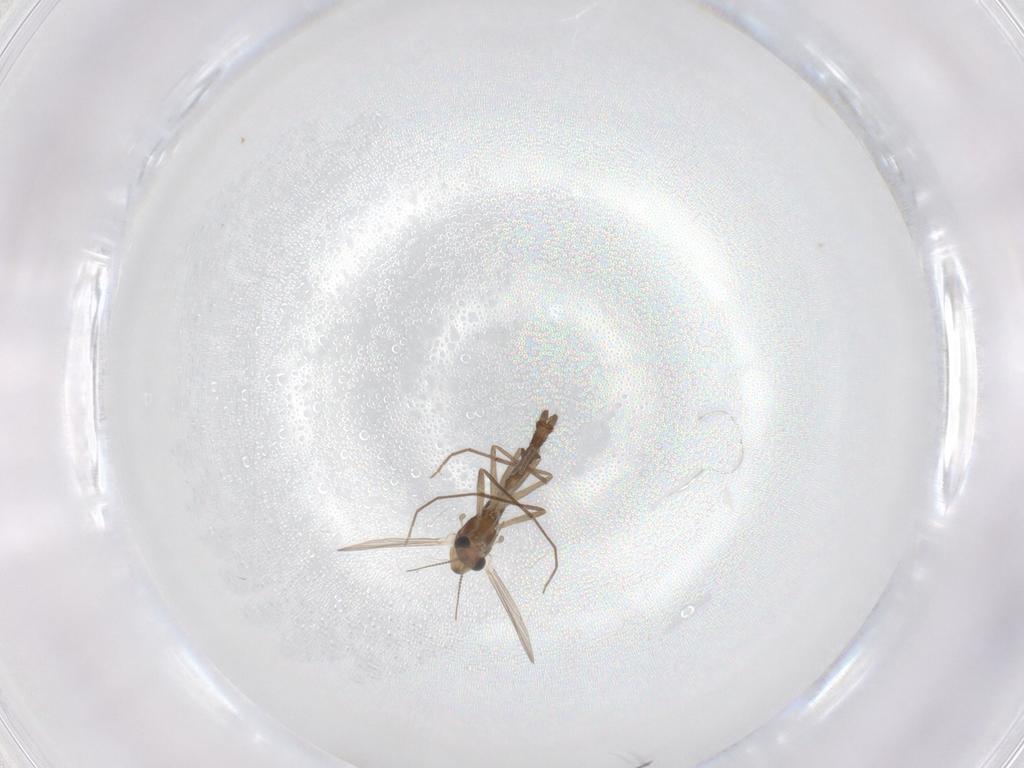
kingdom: Animalia
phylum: Arthropoda
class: Insecta
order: Diptera
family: Chironomidae
